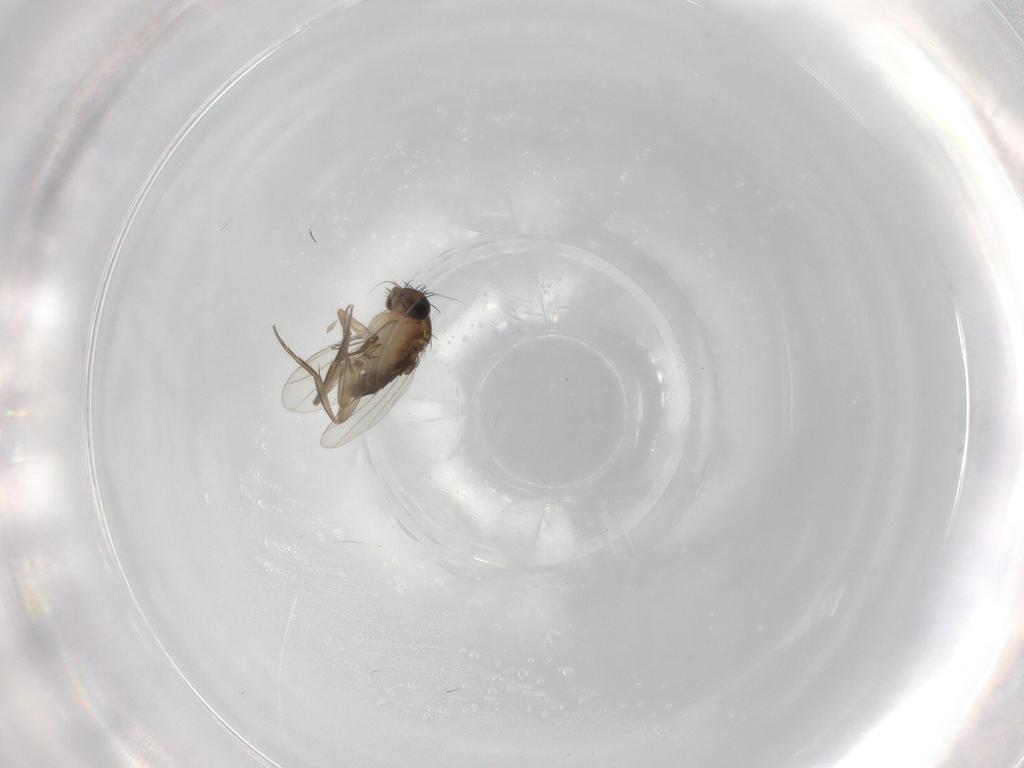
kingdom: Animalia
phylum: Arthropoda
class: Insecta
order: Diptera
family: Phoridae
